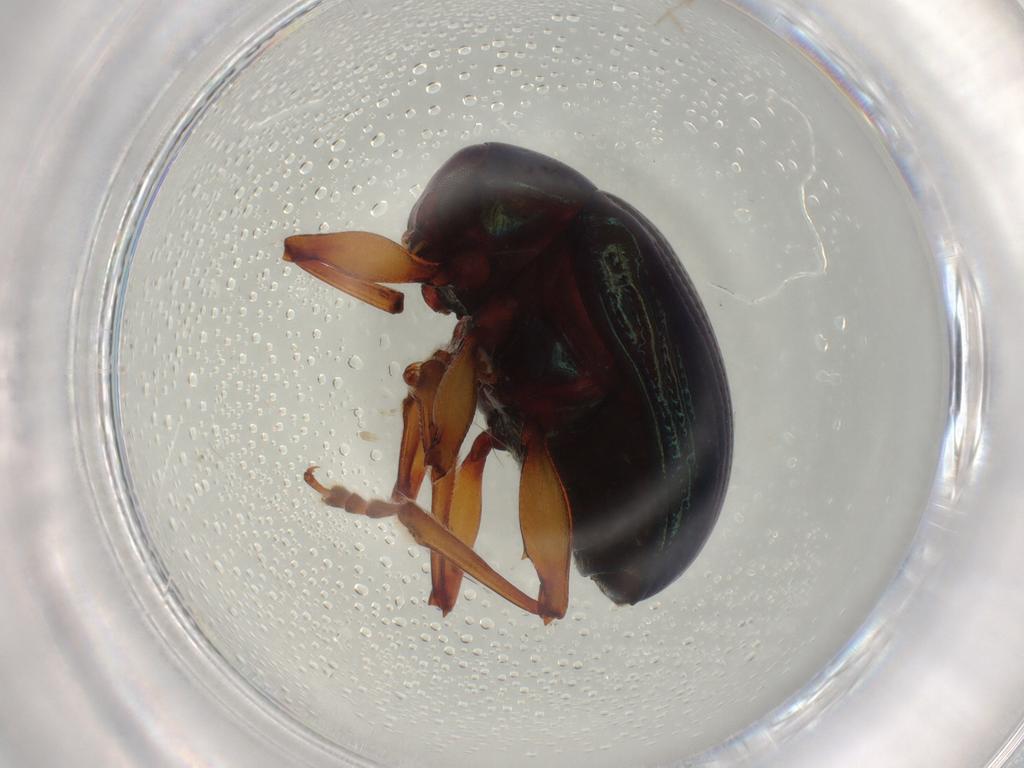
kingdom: Animalia
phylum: Arthropoda
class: Insecta
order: Coleoptera
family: Chrysomelidae
